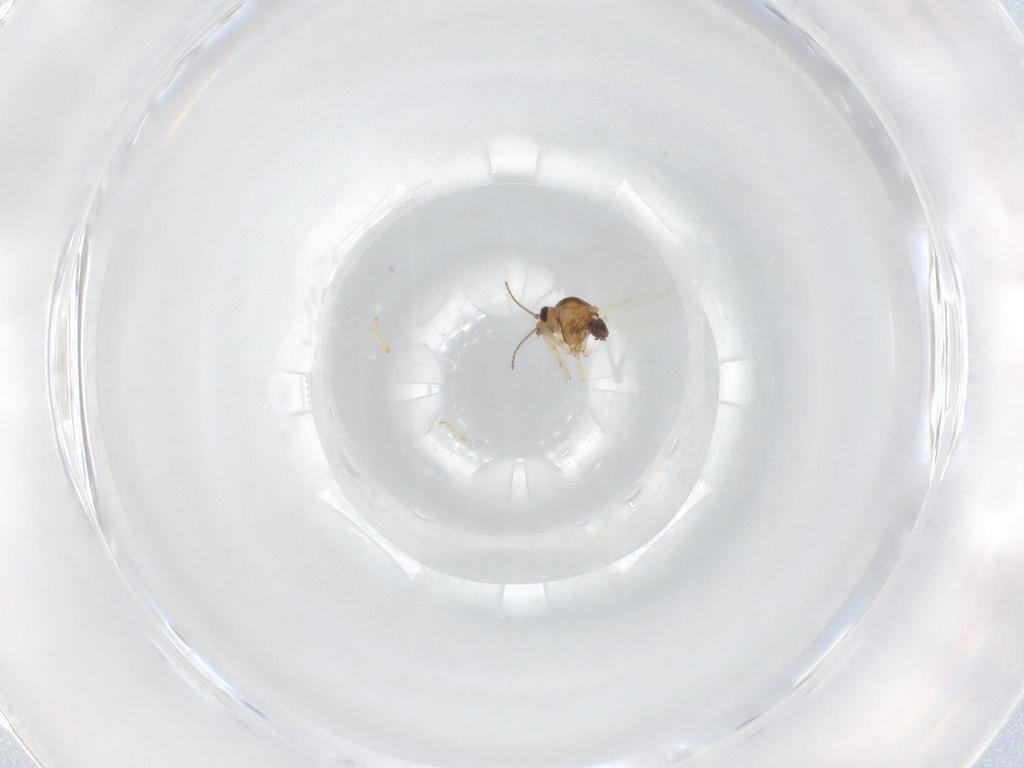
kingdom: Animalia
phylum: Arthropoda
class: Insecta
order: Diptera
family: Ceratopogonidae
